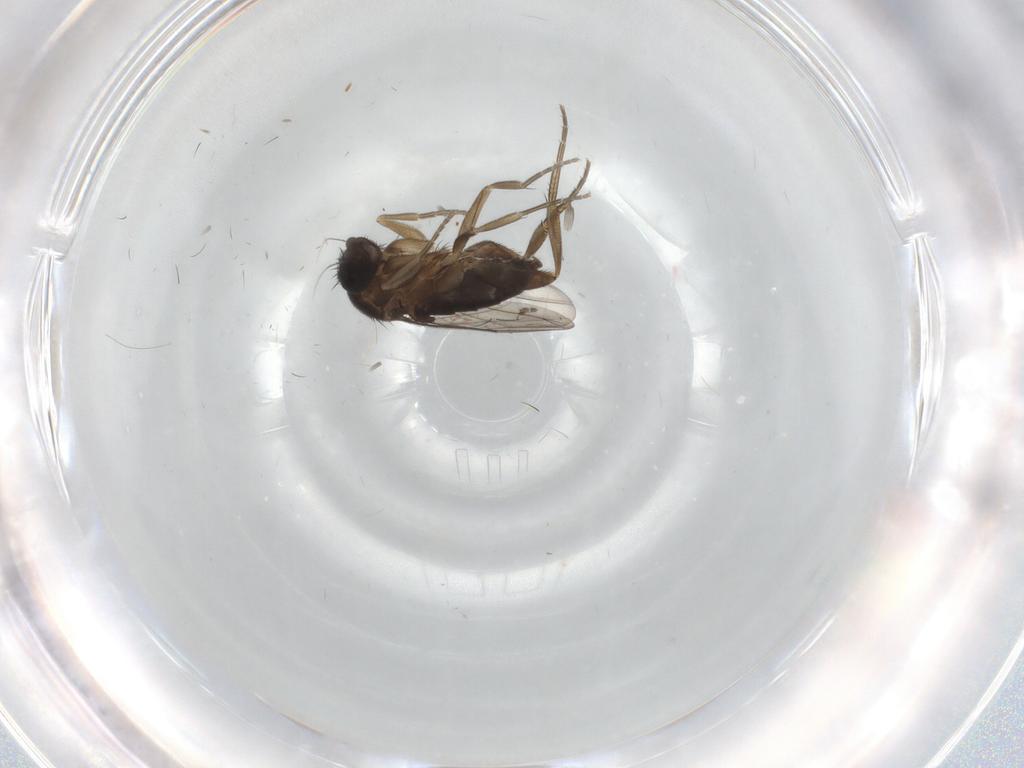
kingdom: Animalia
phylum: Arthropoda
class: Insecta
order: Diptera
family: Phoridae
